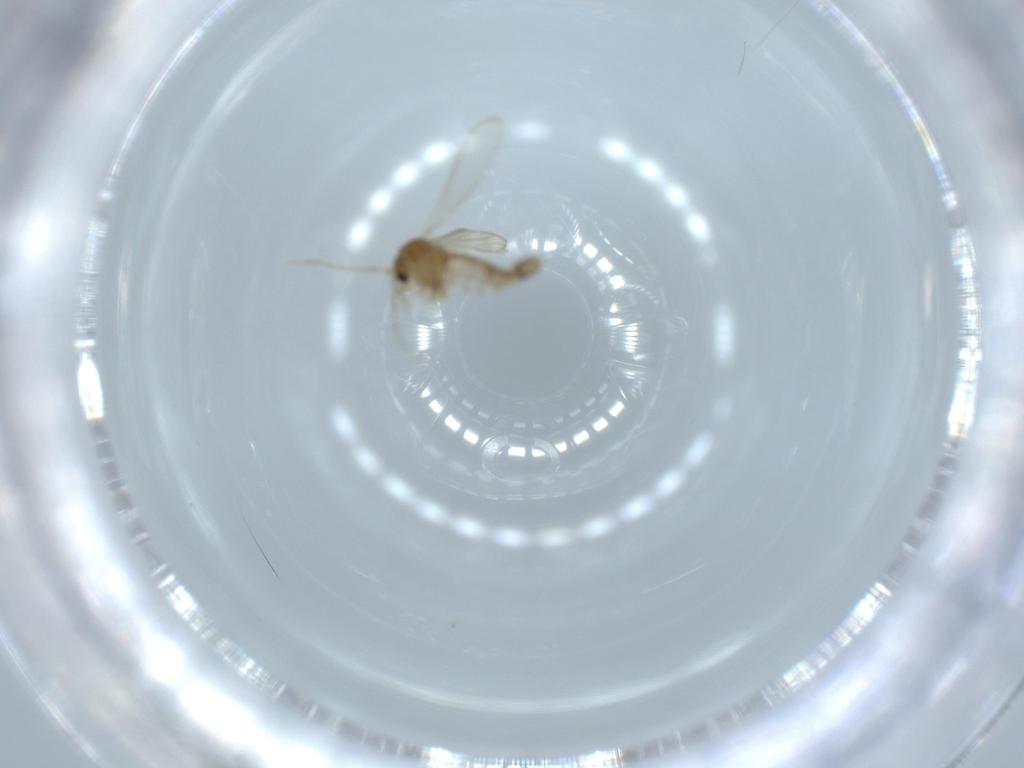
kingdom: Animalia
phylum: Arthropoda
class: Insecta
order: Diptera
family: Psychodidae
